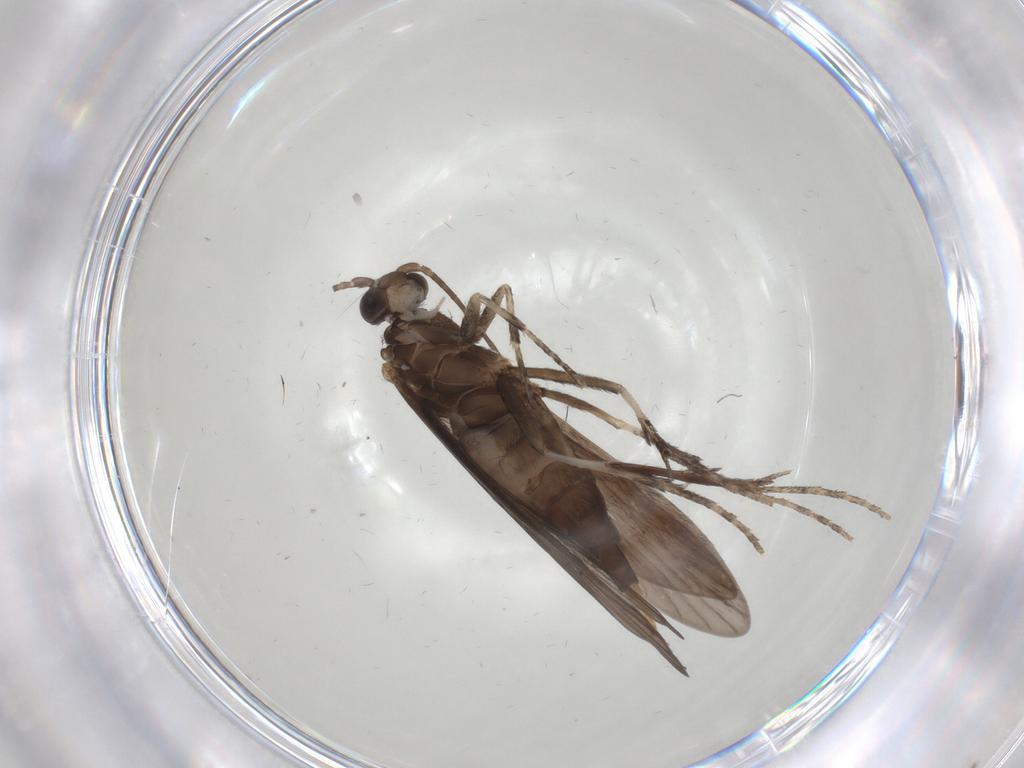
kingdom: Animalia
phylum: Arthropoda
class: Insecta
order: Trichoptera
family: Xiphocentronidae
